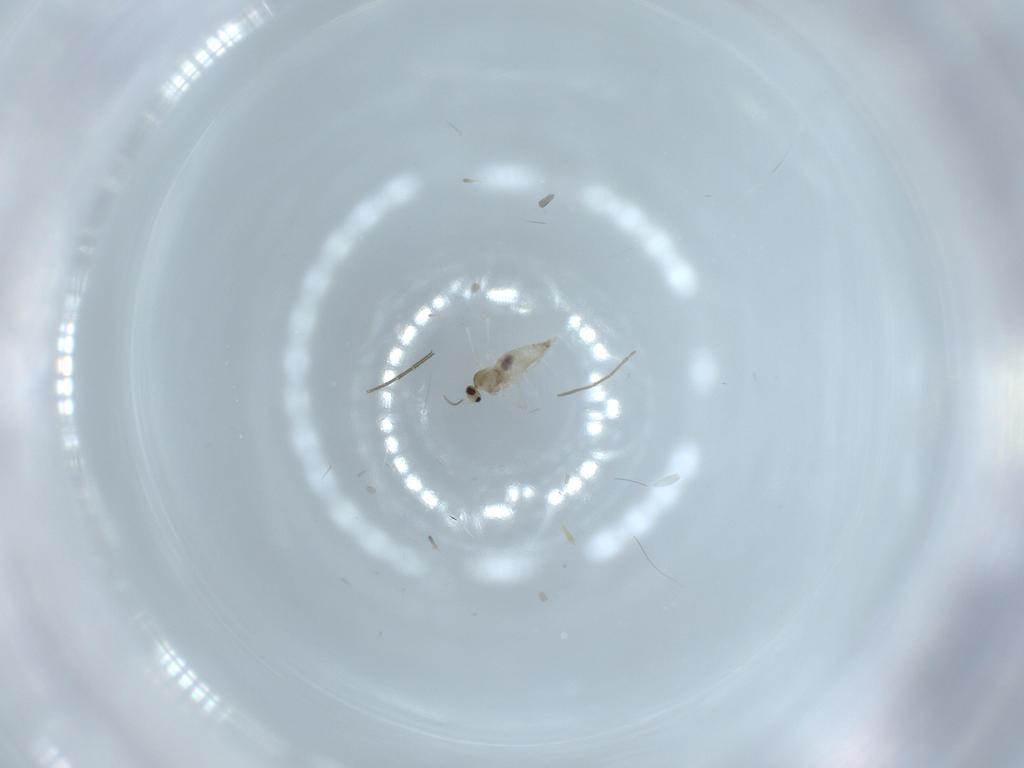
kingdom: Animalia
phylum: Arthropoda
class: Insecta
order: Diptera
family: Cecidomyiidae
